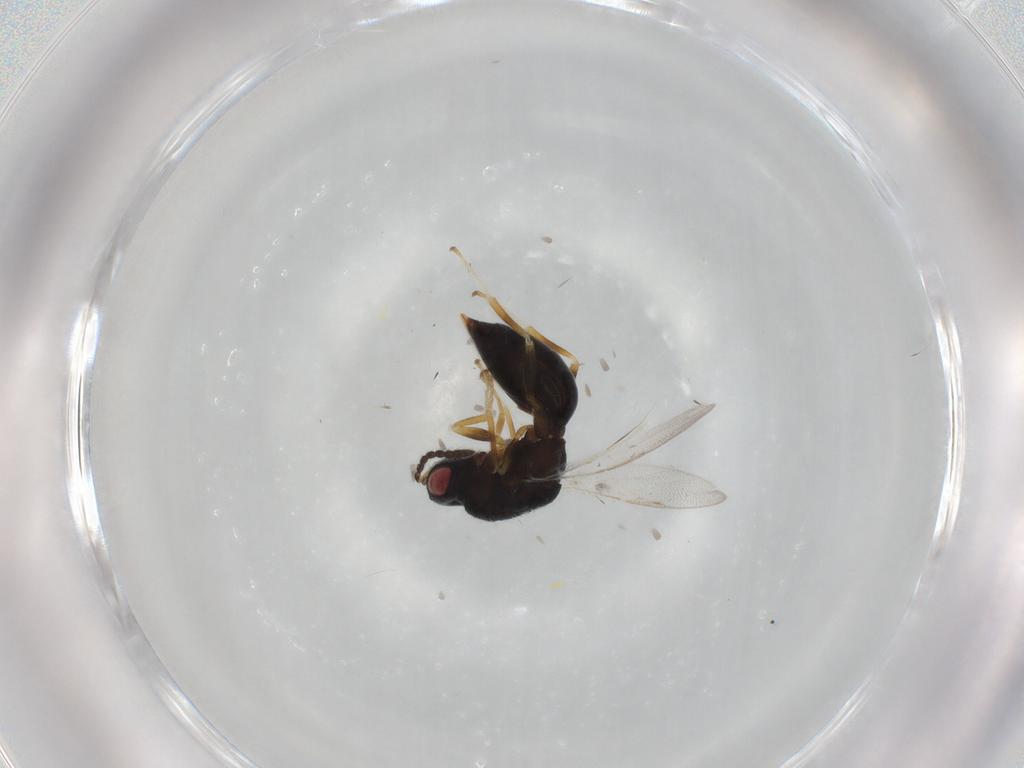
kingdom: Animalia
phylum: Arthropoda
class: Insecta
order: Hymenoptera
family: Eurytomidae
